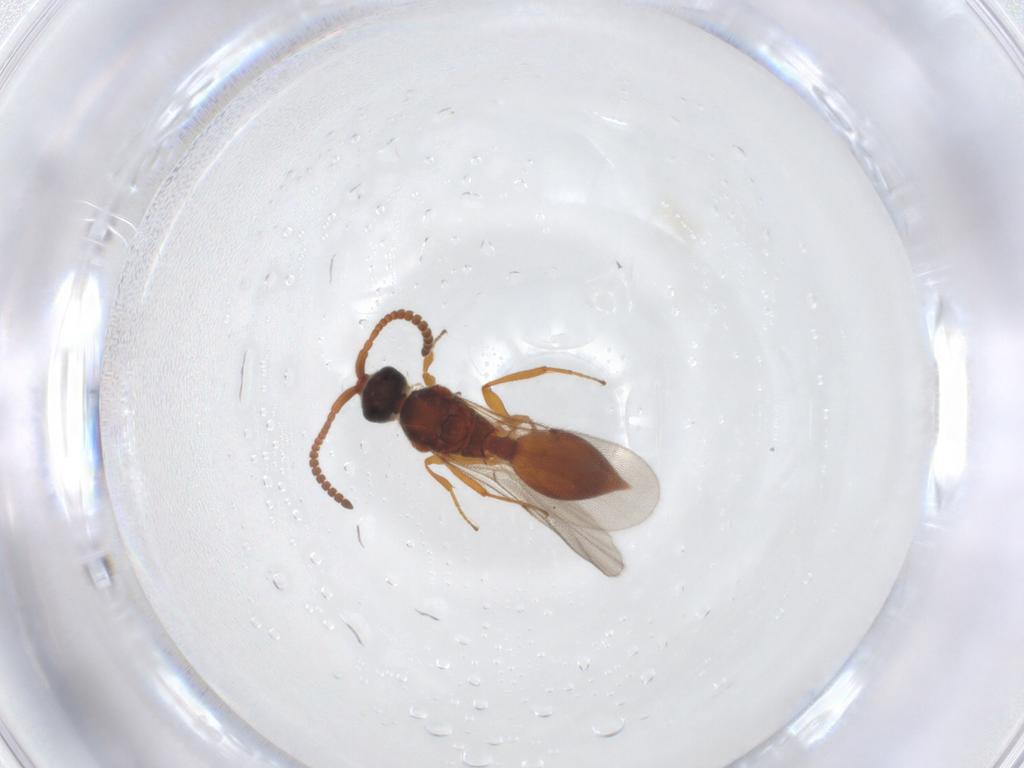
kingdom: Animalia
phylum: Arthropoda
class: Insecta
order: Hymenoptera
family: Diapriidae
